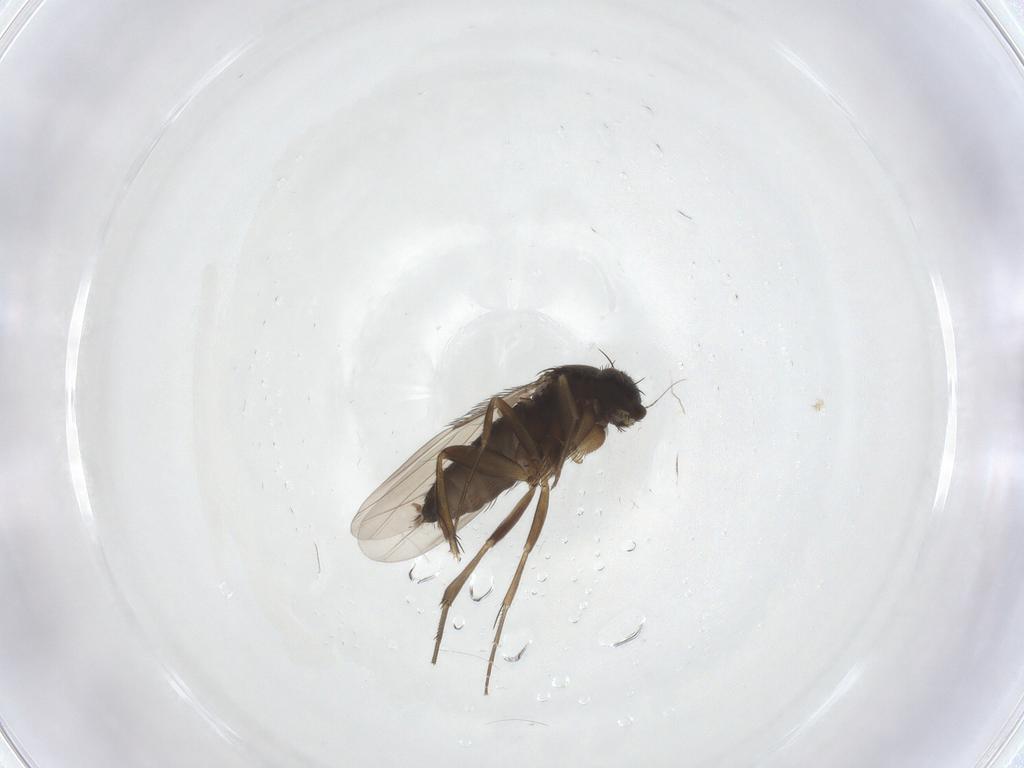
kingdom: Animalia
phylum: Arthropoda
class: Insecta
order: Diptera
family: Phoridae
